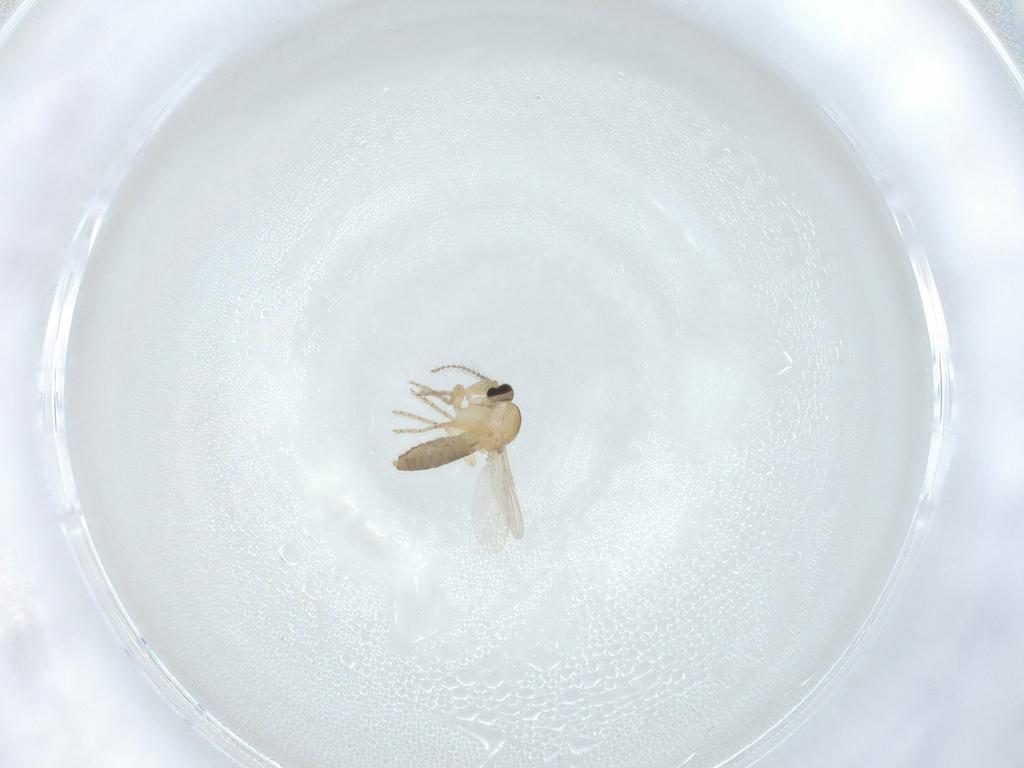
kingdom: Animalia
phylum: Arthropoda
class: Insecta
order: Diptera
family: Ceratopogonidae
